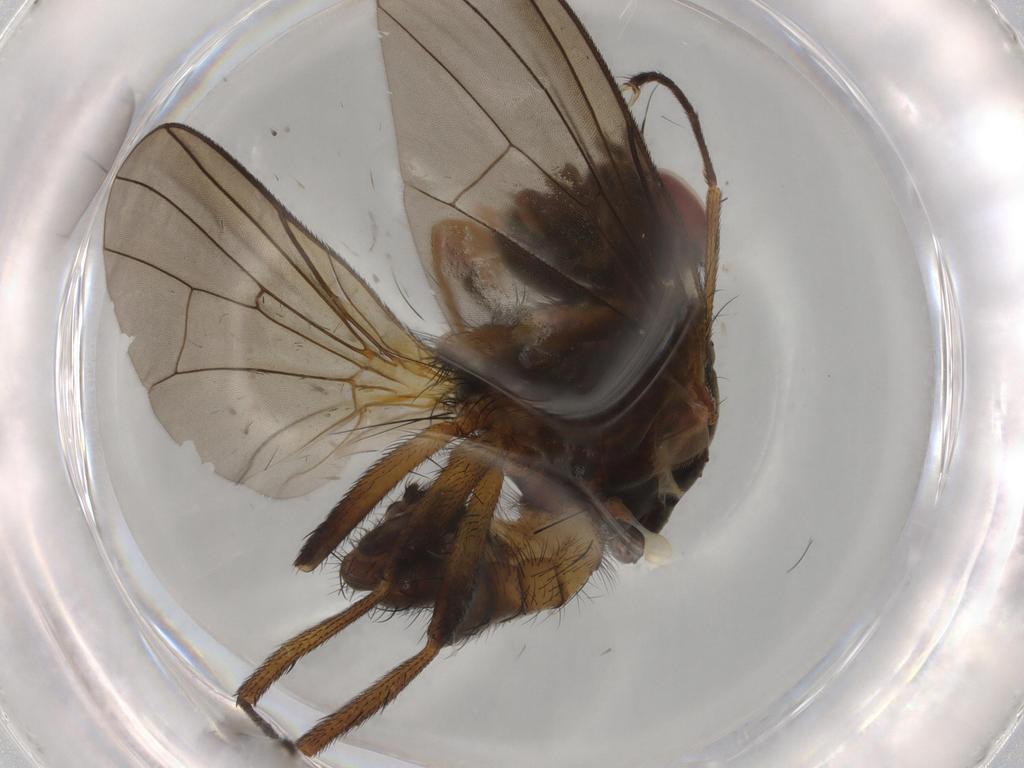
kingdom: Animalia
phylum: Arthropoda
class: Insecta
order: Diptera
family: Anthomyiidae
